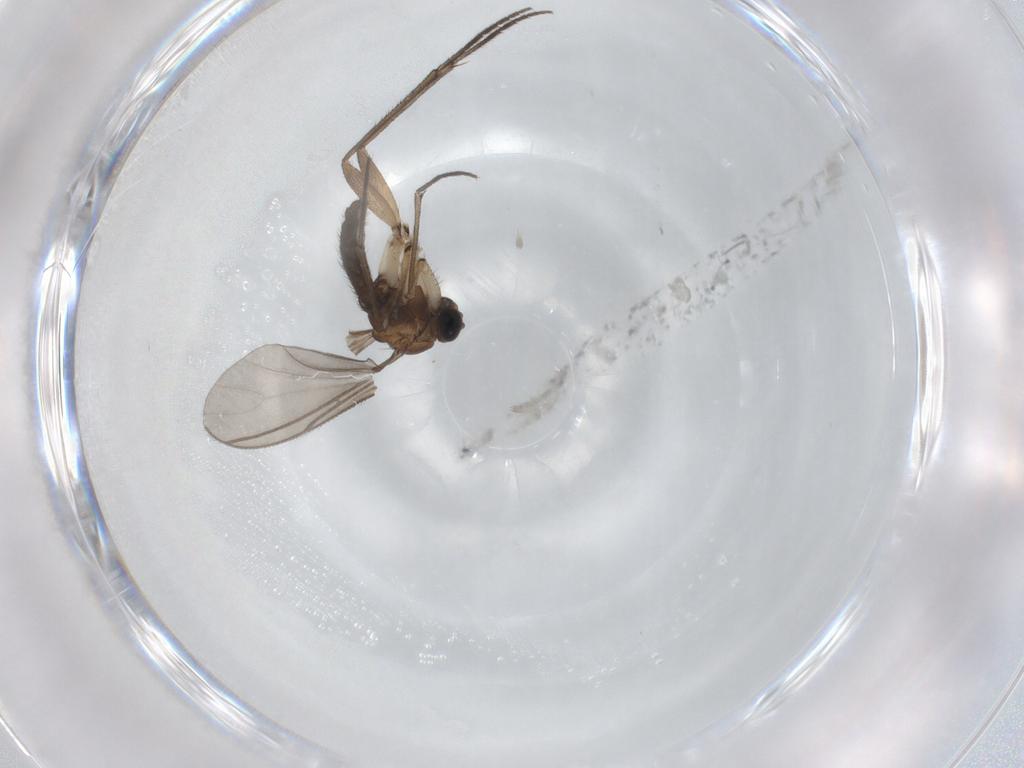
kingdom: Animalia
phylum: Arthropoda
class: Insecta
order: Diptera
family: Sciaridae
